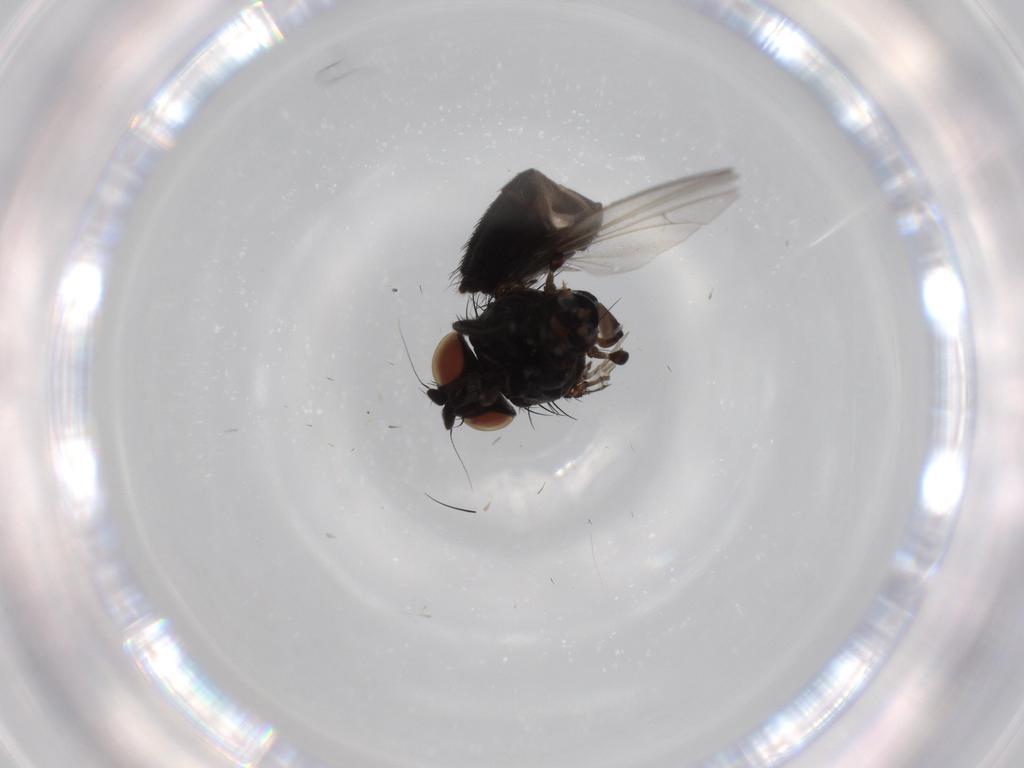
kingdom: Animalia
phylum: Arthropoda
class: Insecta
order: Diptera
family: Milichiidae
